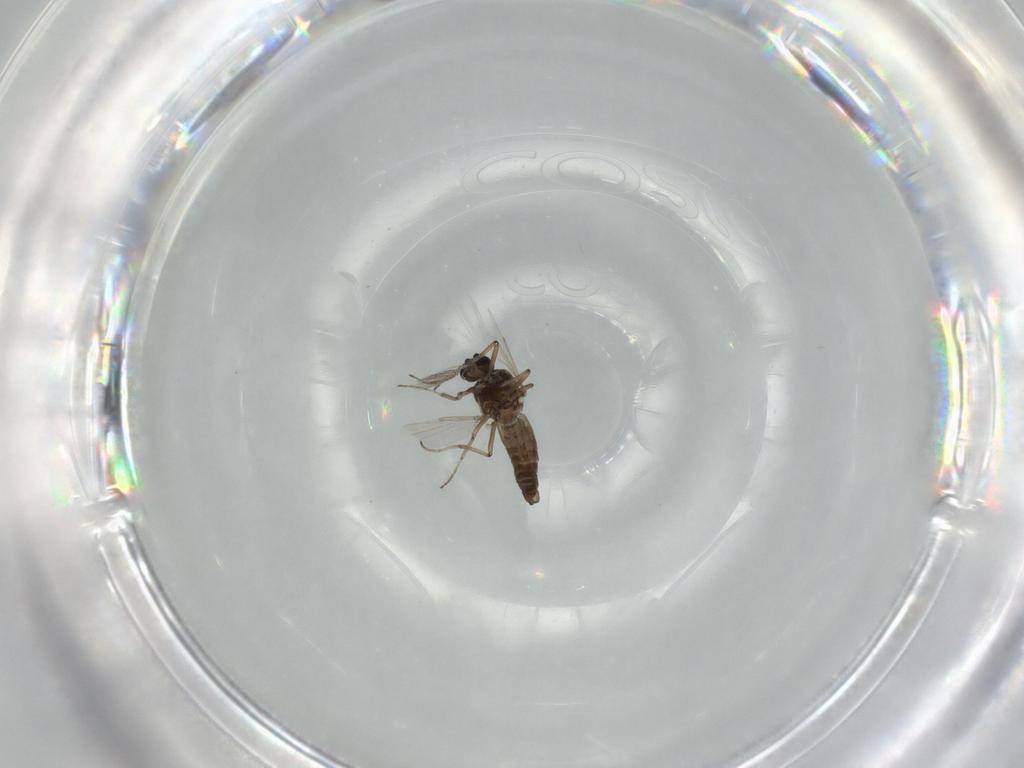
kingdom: Animalia
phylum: Arthropoda
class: Insecta
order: Diptera
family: Ceratopogonidae
